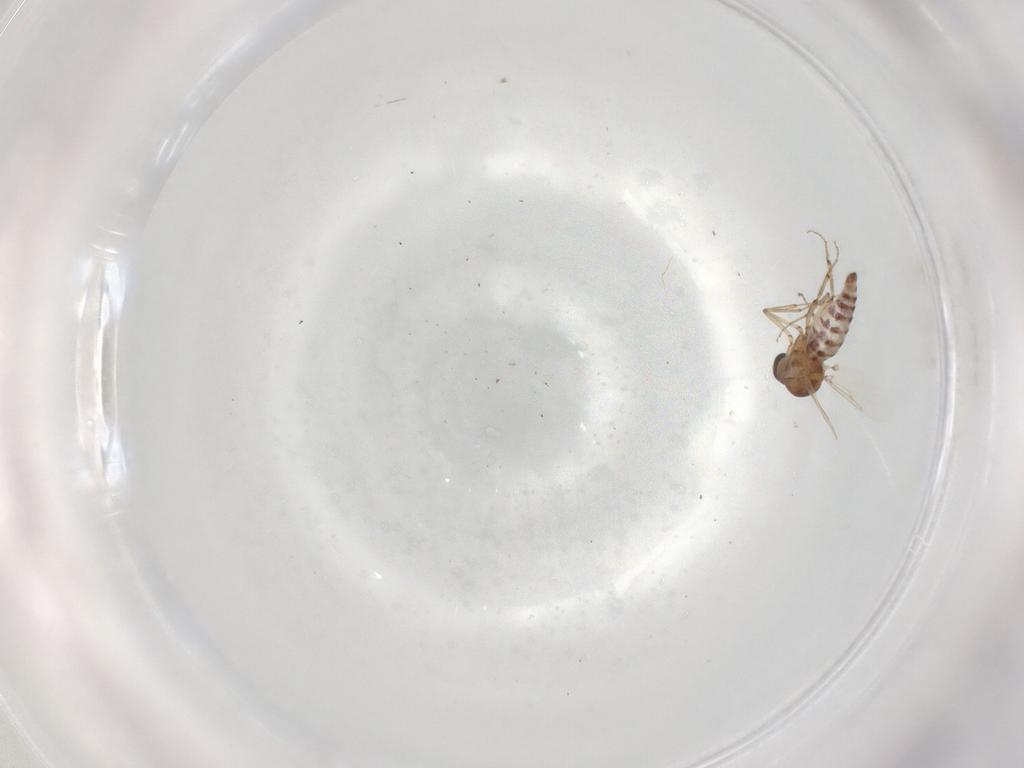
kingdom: Animalia
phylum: Arthropoda
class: Insecta
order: Diptera
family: Ceratopogonidae
